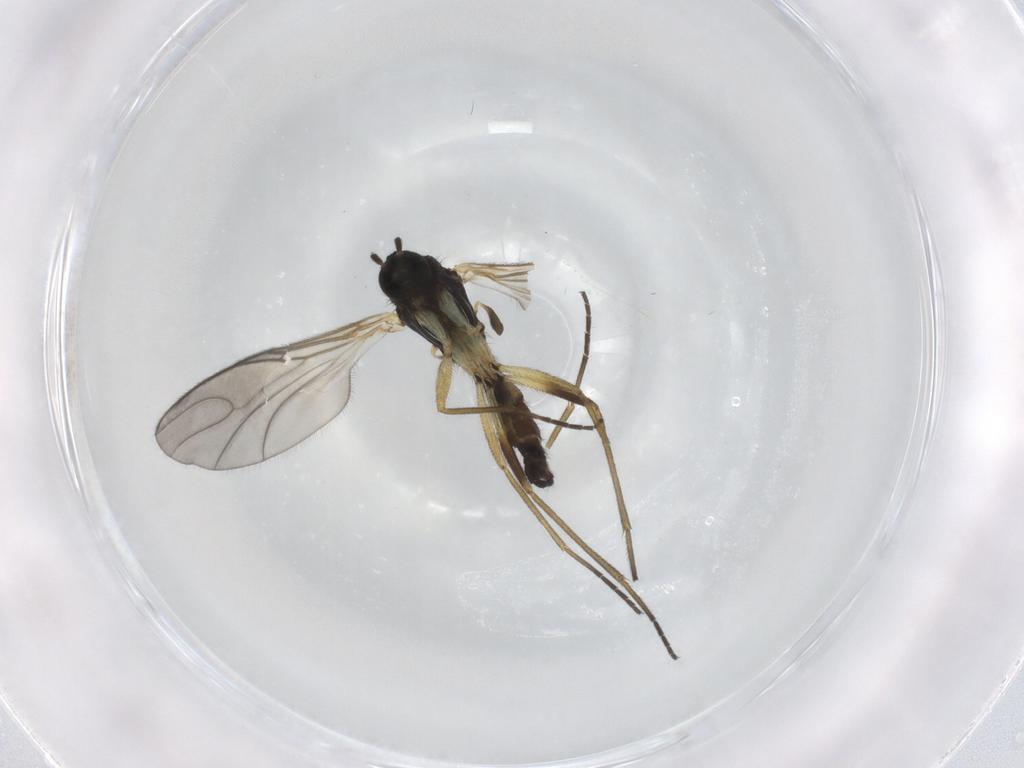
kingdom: Animalia
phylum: Arthropoda
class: Insecta
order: Diptera
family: Sciaridae
